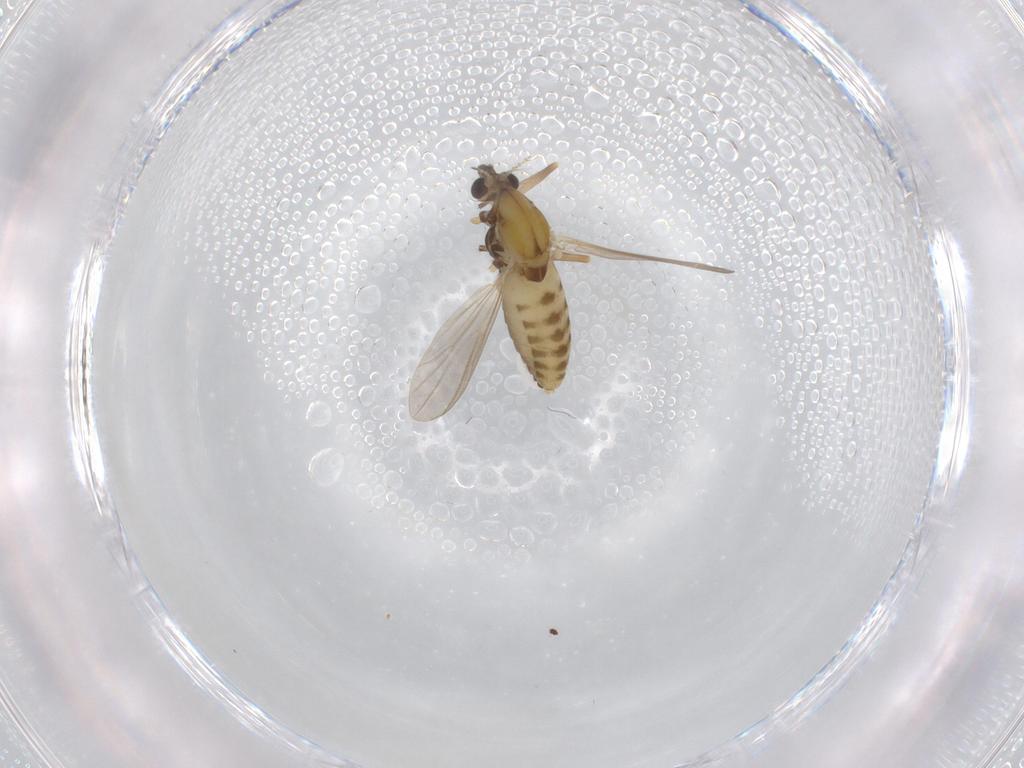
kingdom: Animalia
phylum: Arthropoda
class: Insecta
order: Diptera
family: Chironomidae
